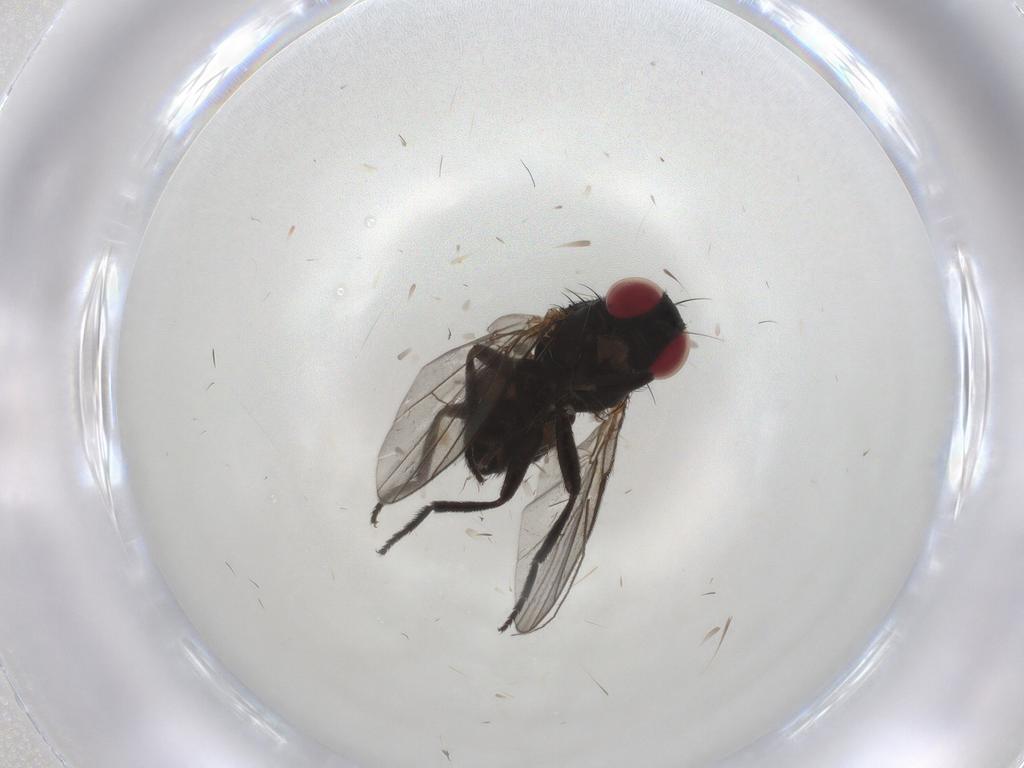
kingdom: Animalia
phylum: Arthropoda
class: Insecta
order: Diptera
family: Agromyzidae
